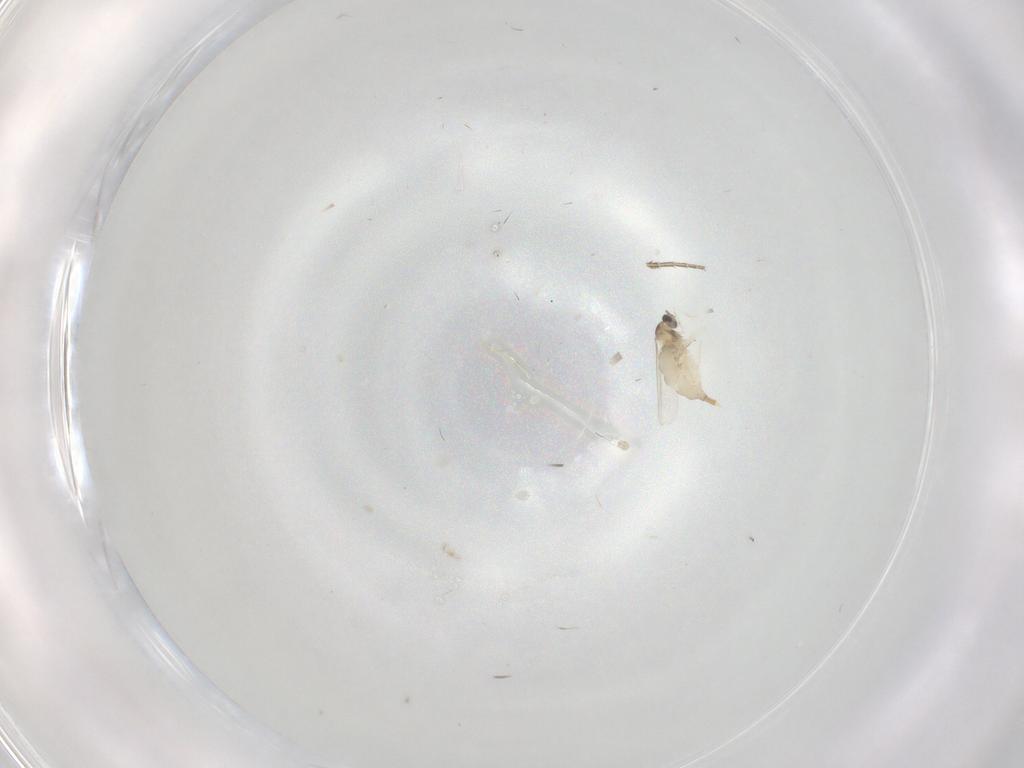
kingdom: Animalia
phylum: Arthropoda
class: Insecta
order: Diptera
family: Phoridae
